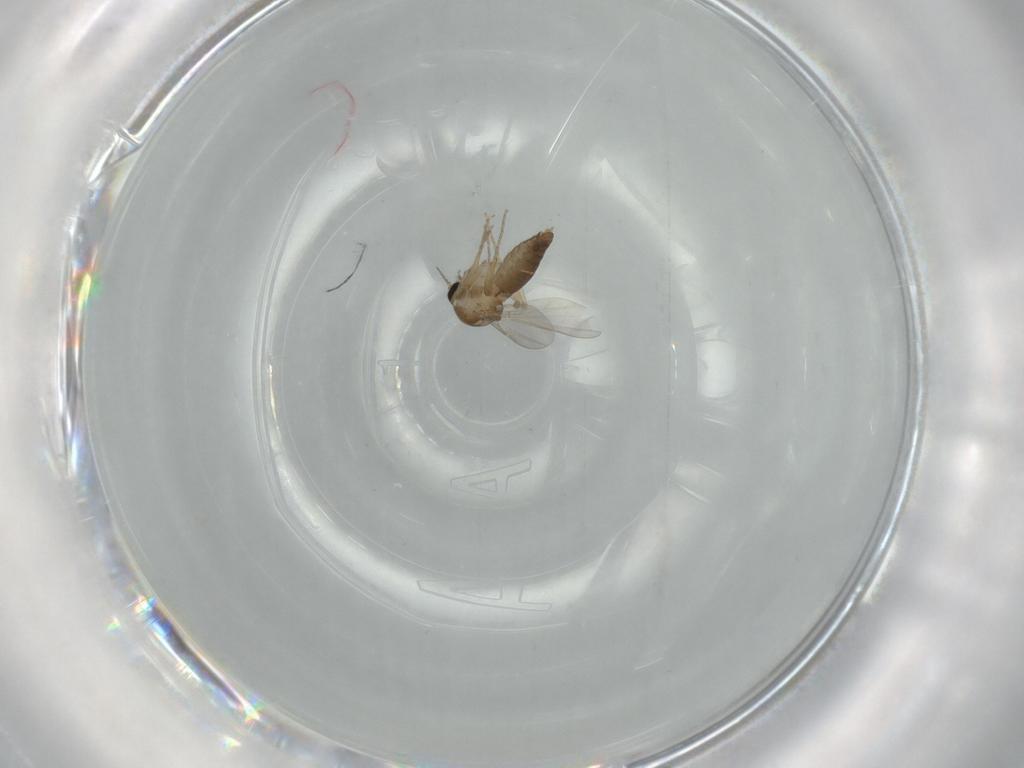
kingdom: Animalia
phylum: Arthropoda
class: Insecta
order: Diptera
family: Ceratopogonidae
